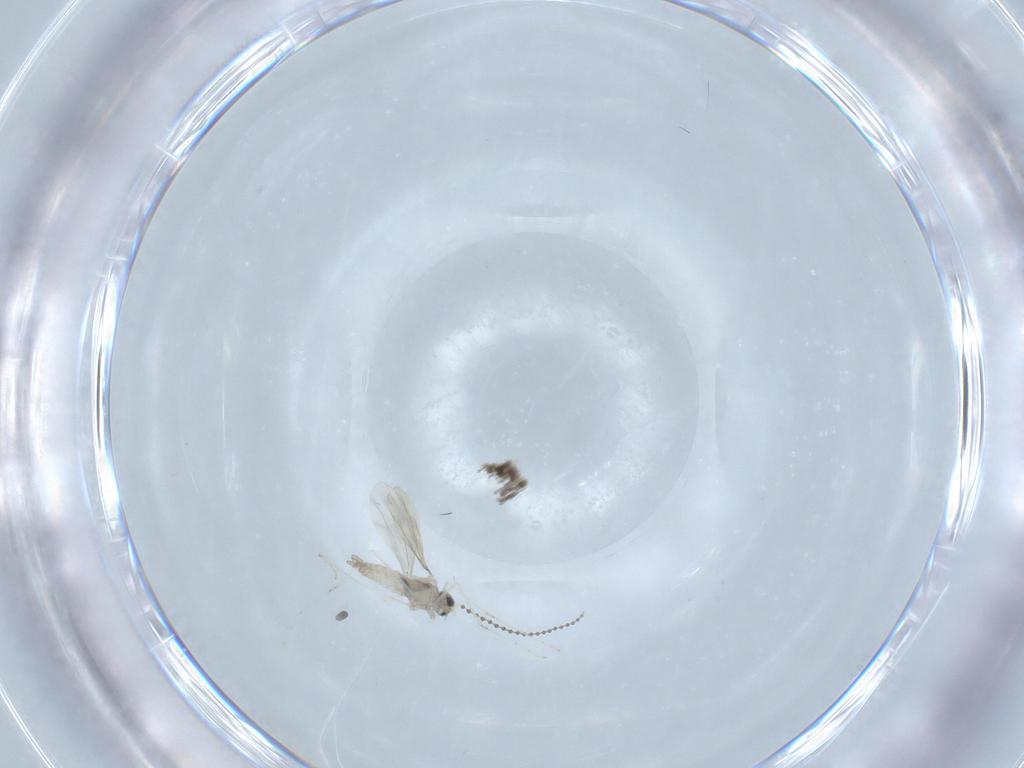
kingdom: Animalia
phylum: Arthropoda
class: Insecta
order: Diptera
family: Cecidomyiidae
